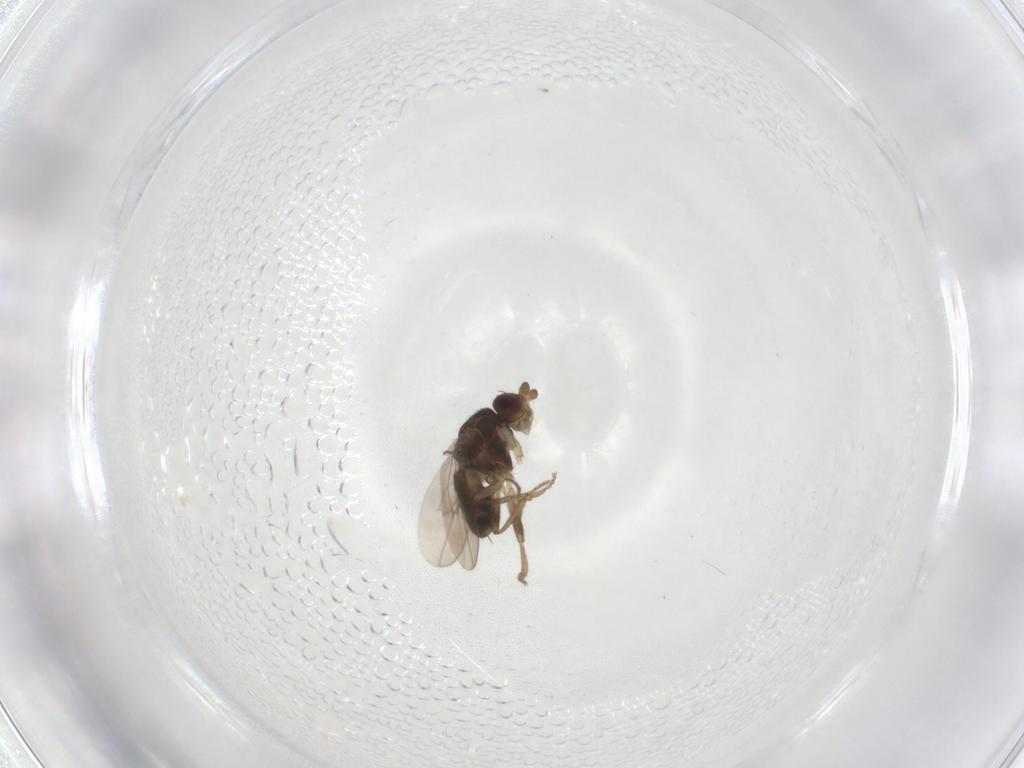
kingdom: Animalia
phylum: Arthropoda
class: Insecta
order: Diptera
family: Sphaeroceridae
